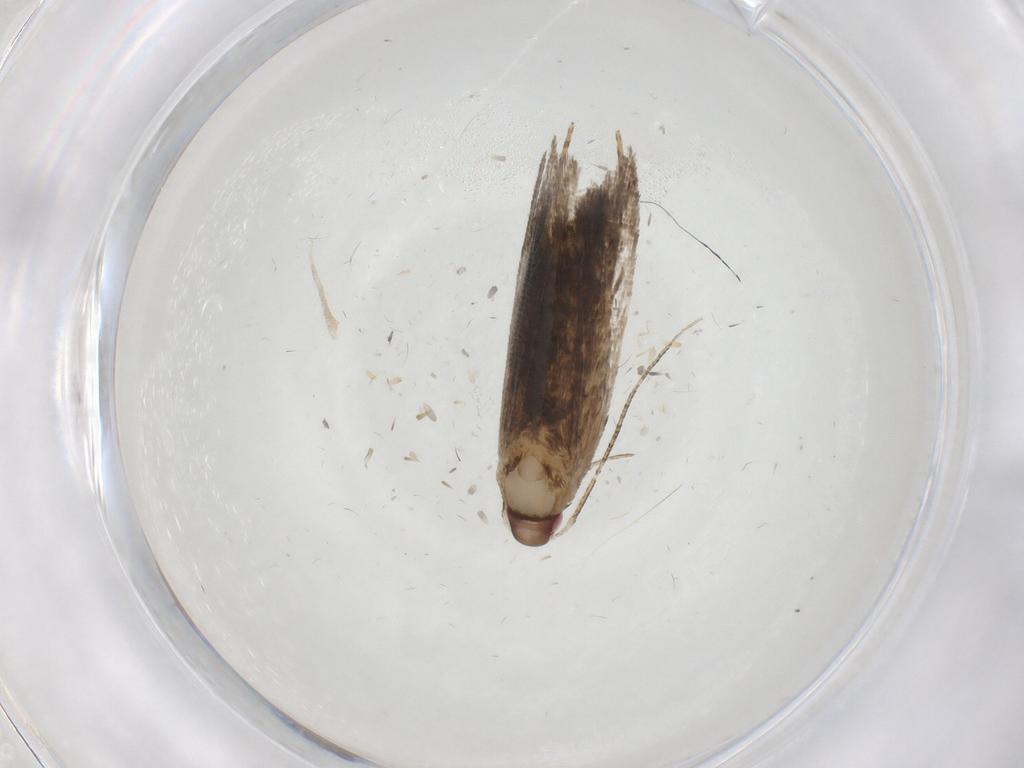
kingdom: Animalia
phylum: Arthropoda
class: Insecta
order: Lepidoptera
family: Gelechiidae
